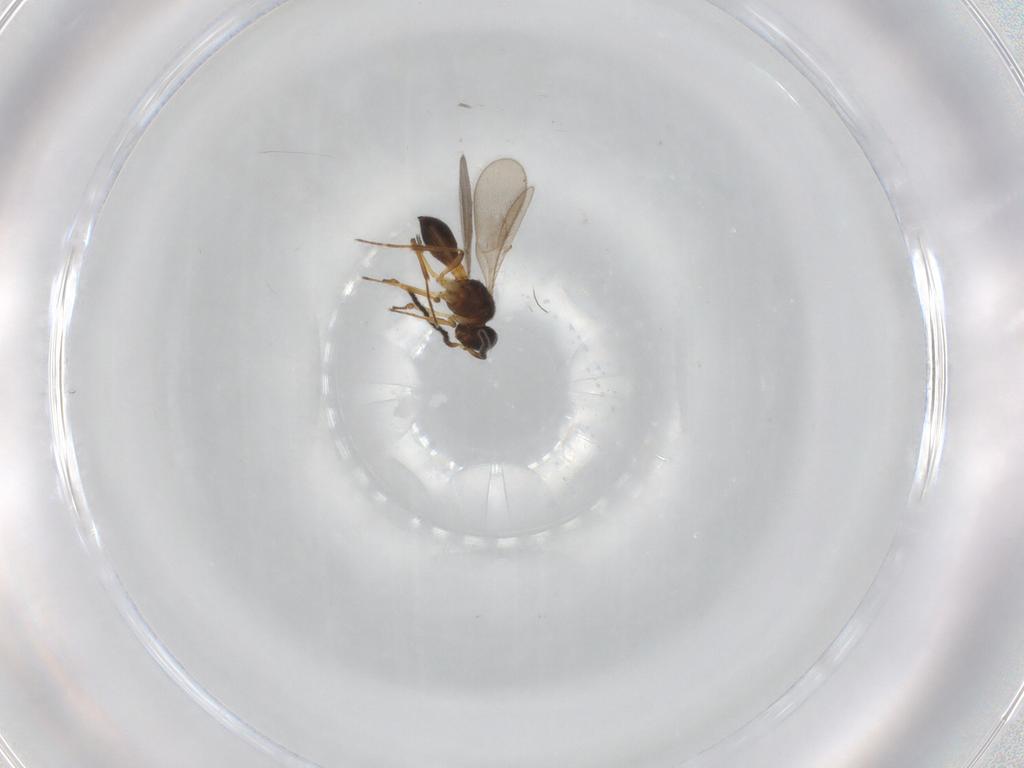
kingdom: Animalia
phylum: Arthropoda
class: Insecta
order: Hymenoptera
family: Scelionidae
